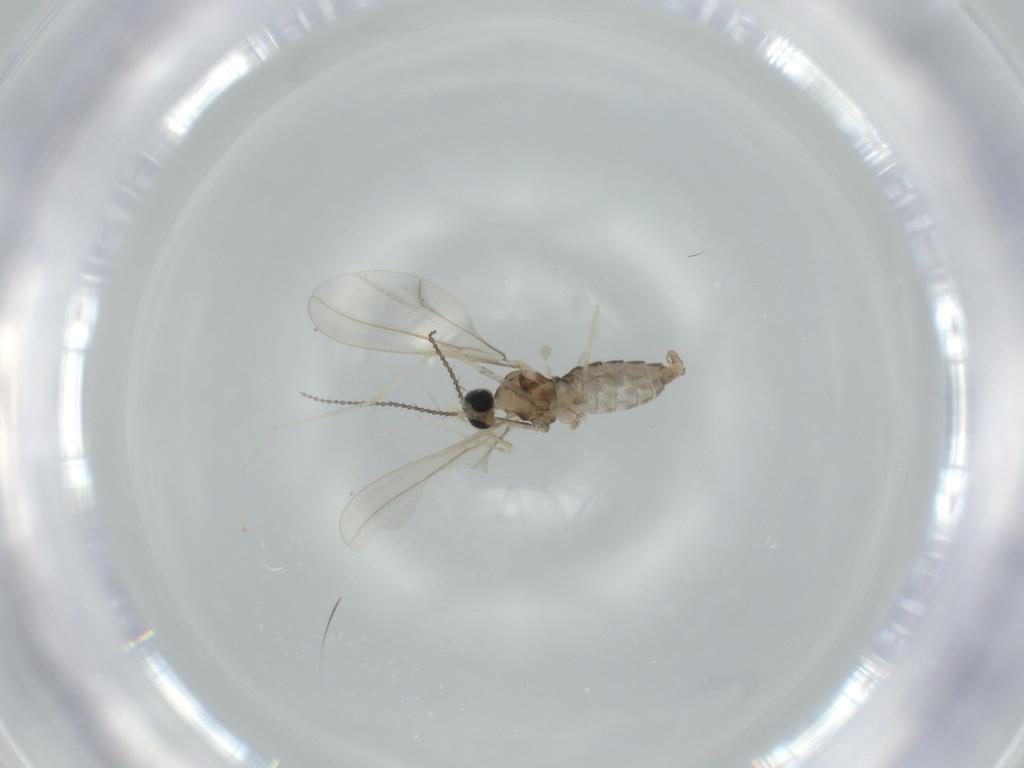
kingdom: Animalia
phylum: Arthropoda
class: Insecta
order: Diptera
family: Cecidomyiidae
